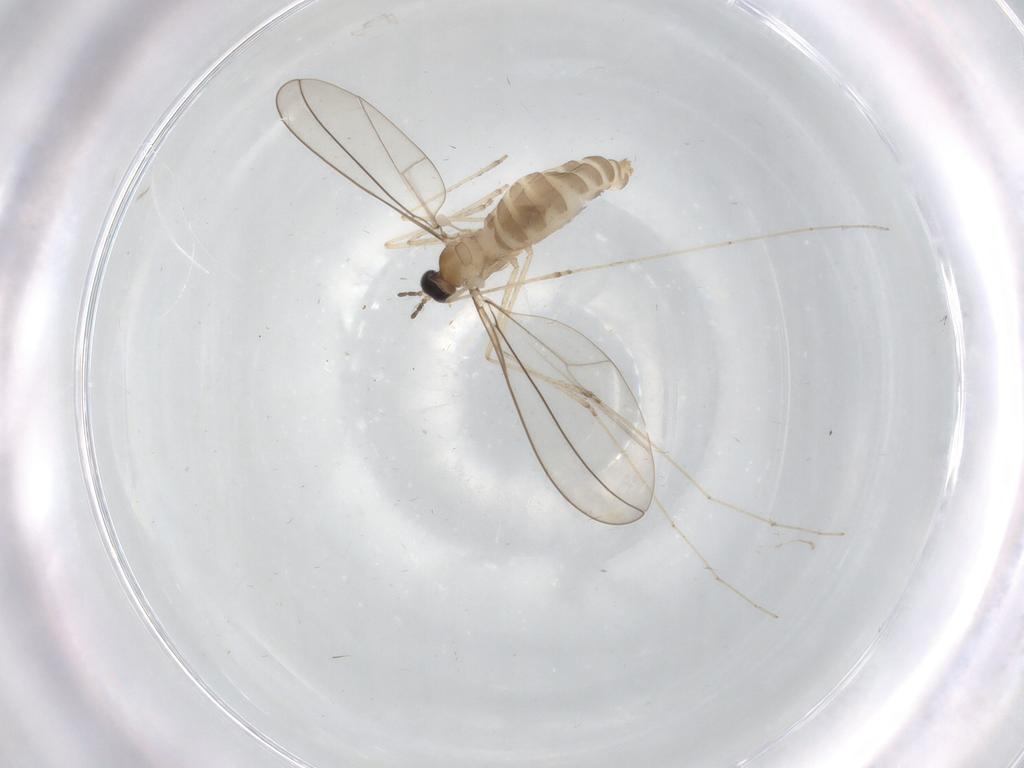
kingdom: Animalia
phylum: Arthropoda
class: Insecta
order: Diptera
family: Cecidomyiidae
